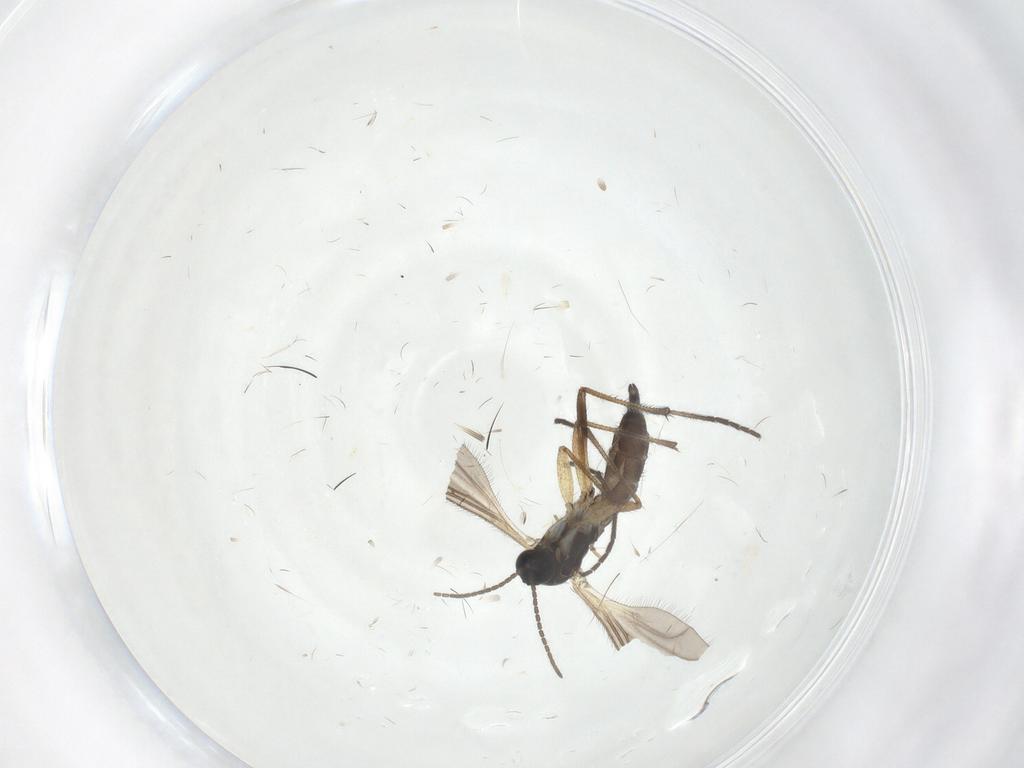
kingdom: Animalia
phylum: Arthropoda
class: Insecta
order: Diptera
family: Sciaridae
